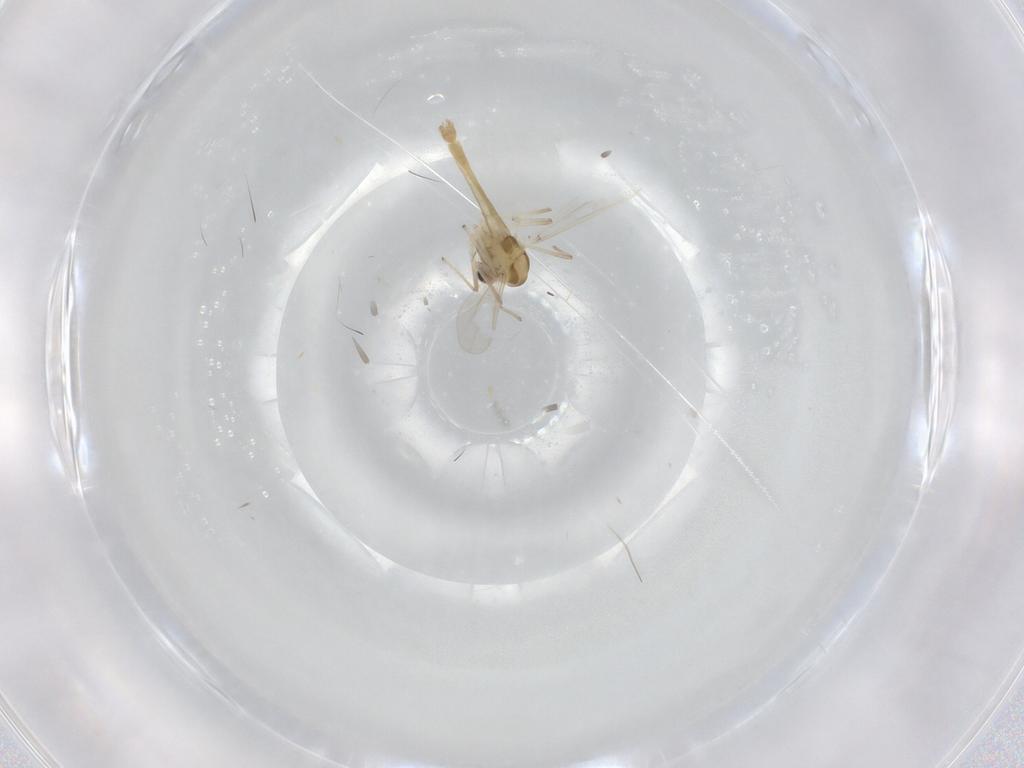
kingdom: Animalia
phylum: Arthropoda
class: Insecta
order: Diptera
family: Chironomidae
